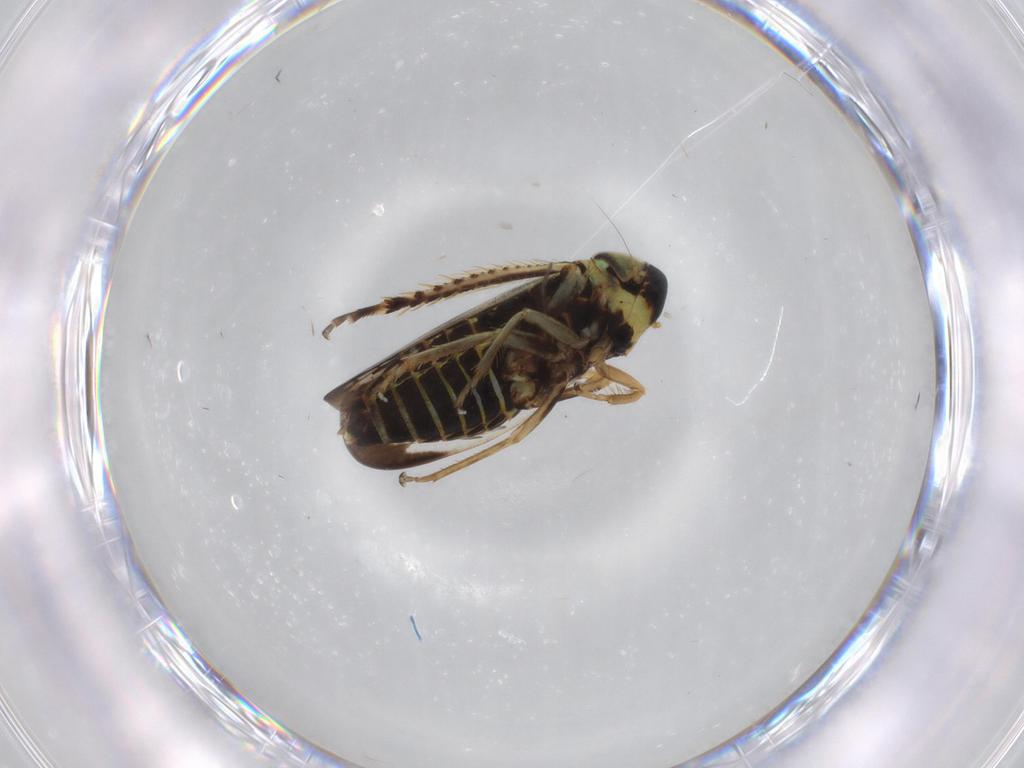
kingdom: Animalia
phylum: Arthropoda
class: Insecta
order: Hemiptera
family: Cicadellidae
